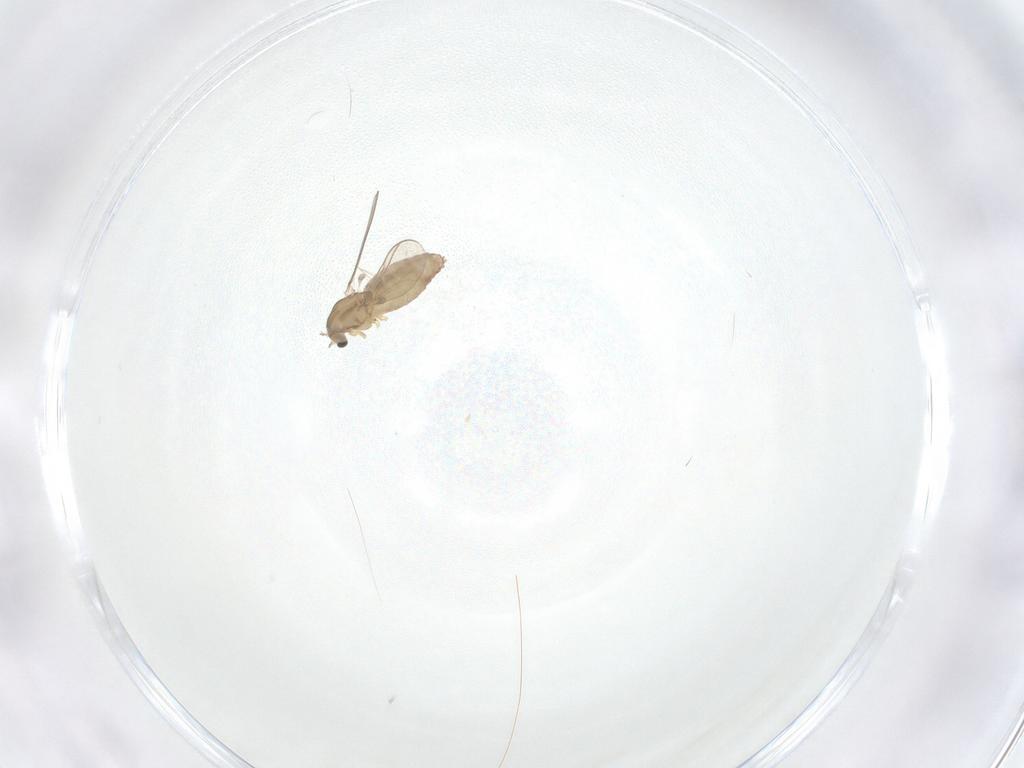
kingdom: Animalia
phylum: Arthropoda
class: Insecta
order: Diptera
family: Chironomidae
